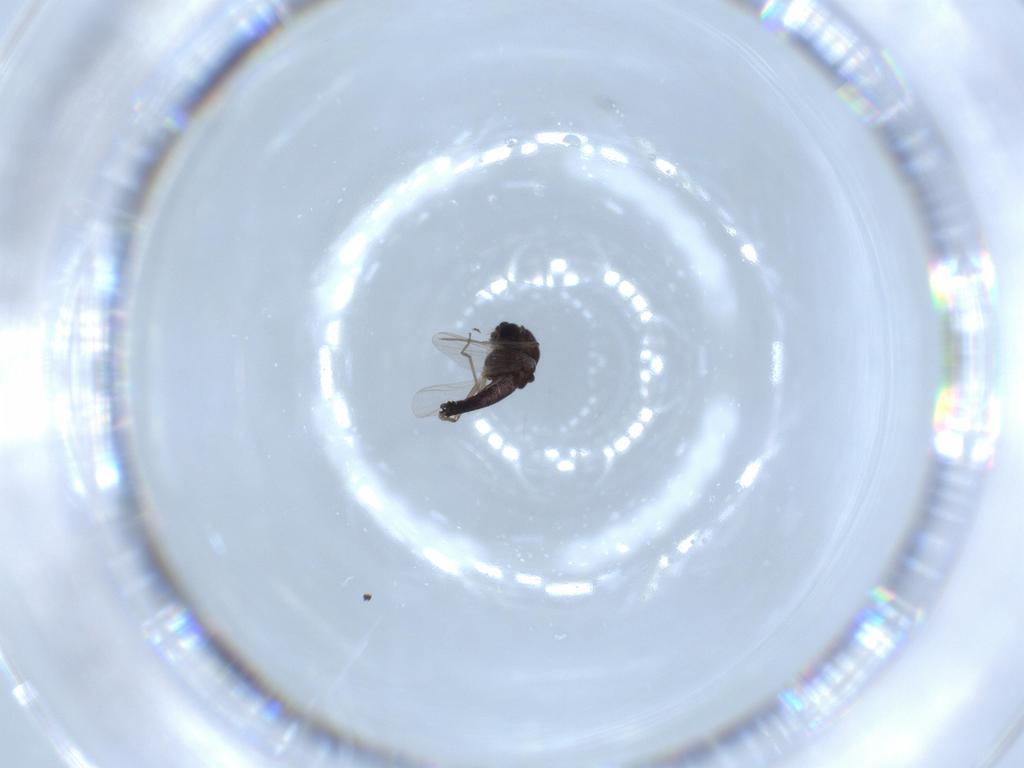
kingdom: Animalia
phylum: Arthropoda
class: Insecta
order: Diptera
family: Chironomidae
